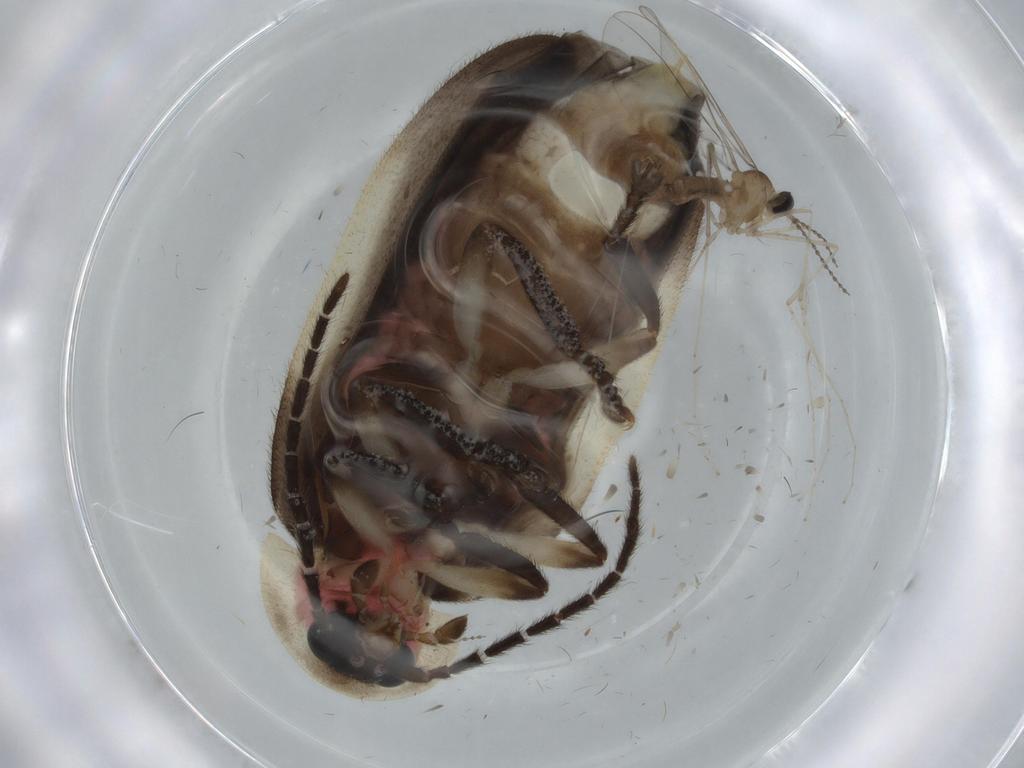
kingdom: Animalia
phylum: Arthropoda
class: Insecta
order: Coleoptera
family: Lampyridae
